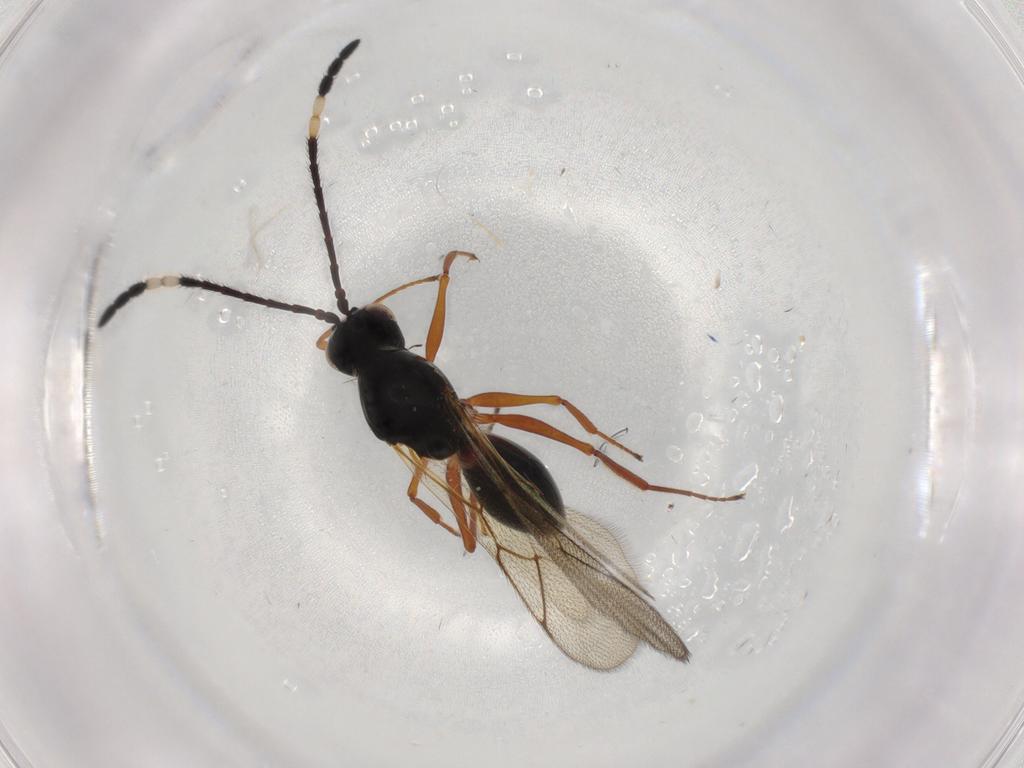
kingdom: Animalia
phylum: Arthropoda
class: Insecta
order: Hymenoptera
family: Figitidae
